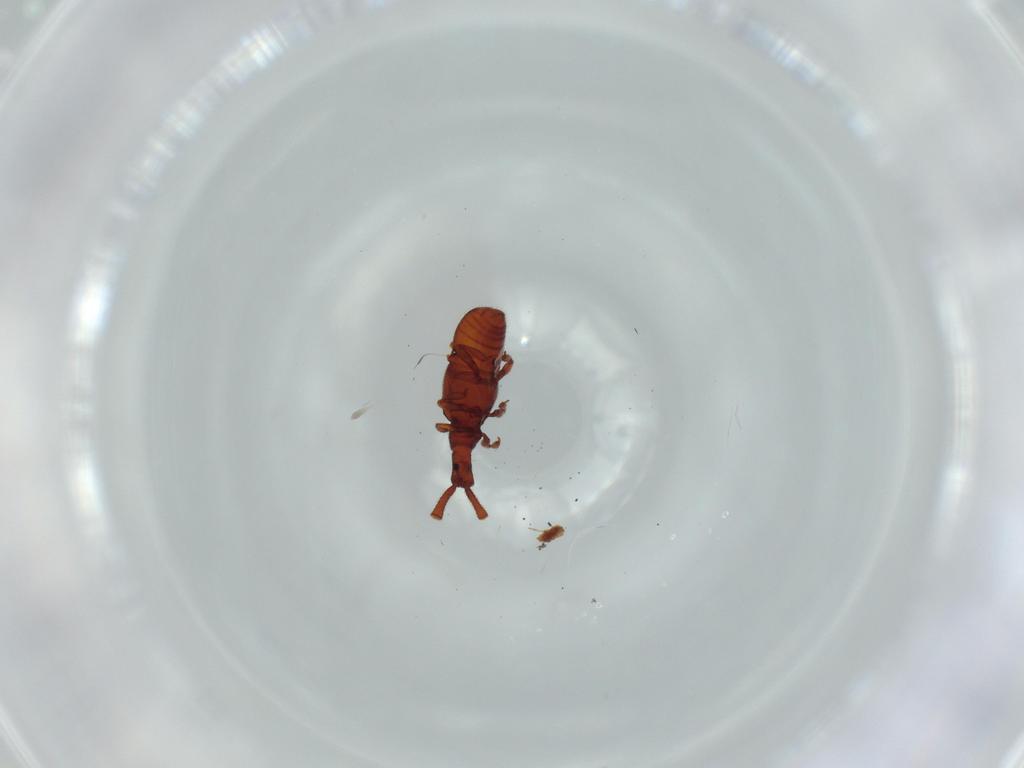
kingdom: Animalia
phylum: Arthropoda
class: Insecta
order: Coleoptera
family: Staphylinidae
